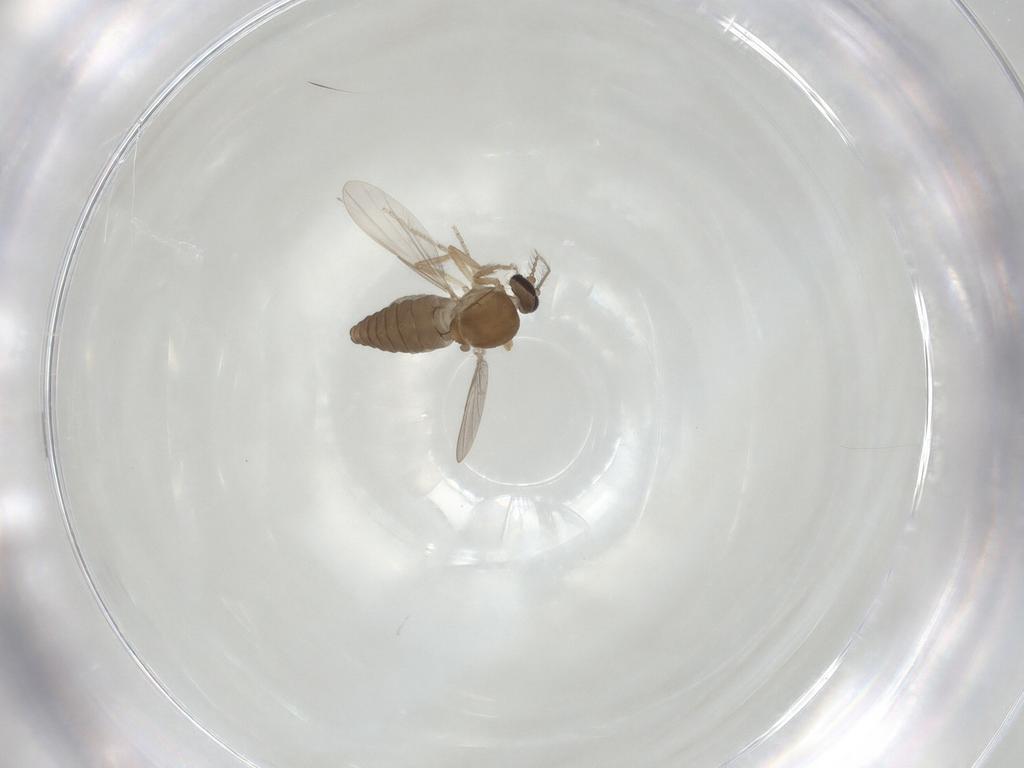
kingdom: Animalia
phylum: Arthropoda
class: Insecta
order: Diptera
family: Ceratopogonidae
